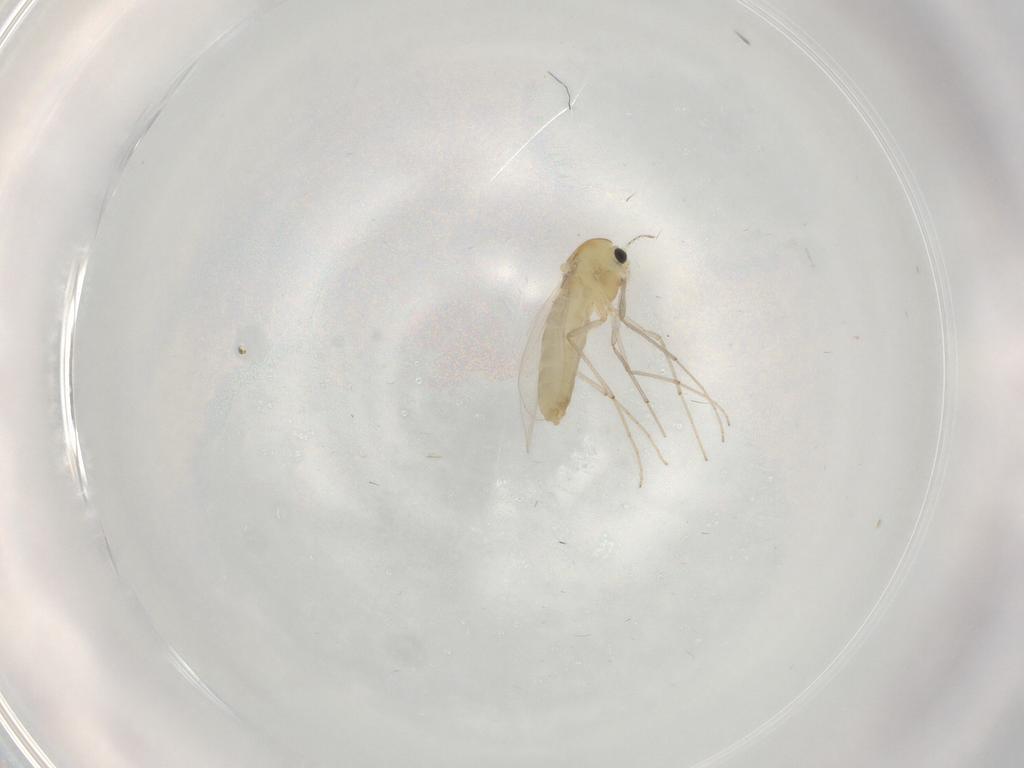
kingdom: Animalia
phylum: Arthropoda
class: Insecta
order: Diptera
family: Chironomidae
